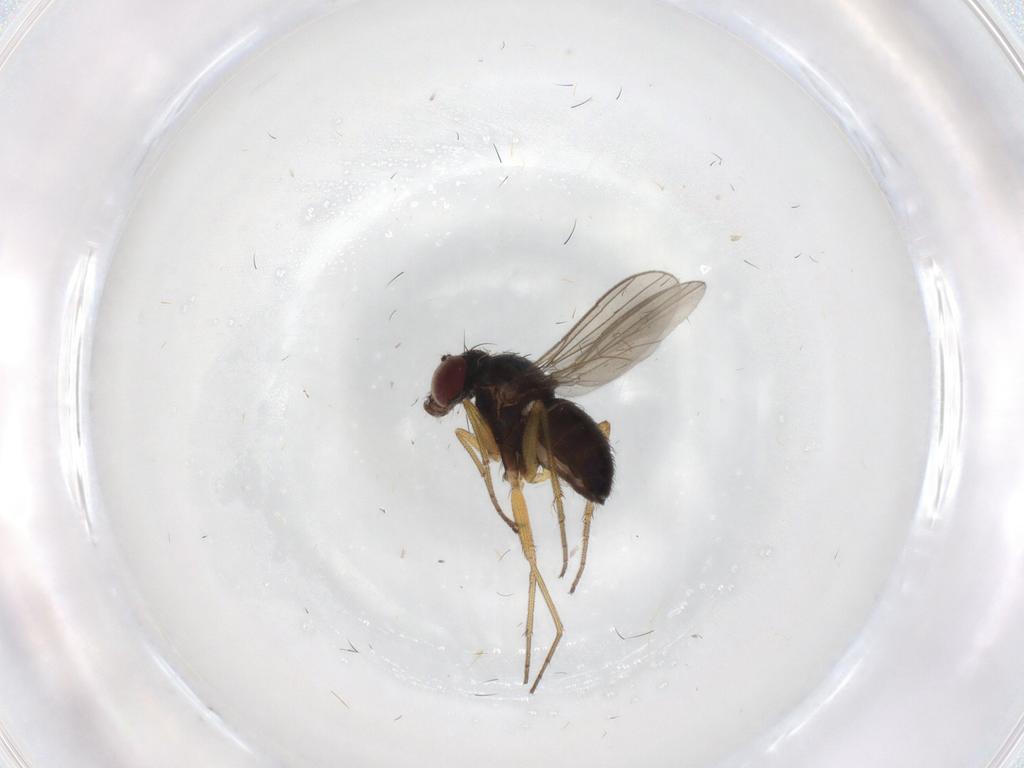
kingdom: Animalia
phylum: Arthropoda
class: Insecta
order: Diptera
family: Dolichopodidae
